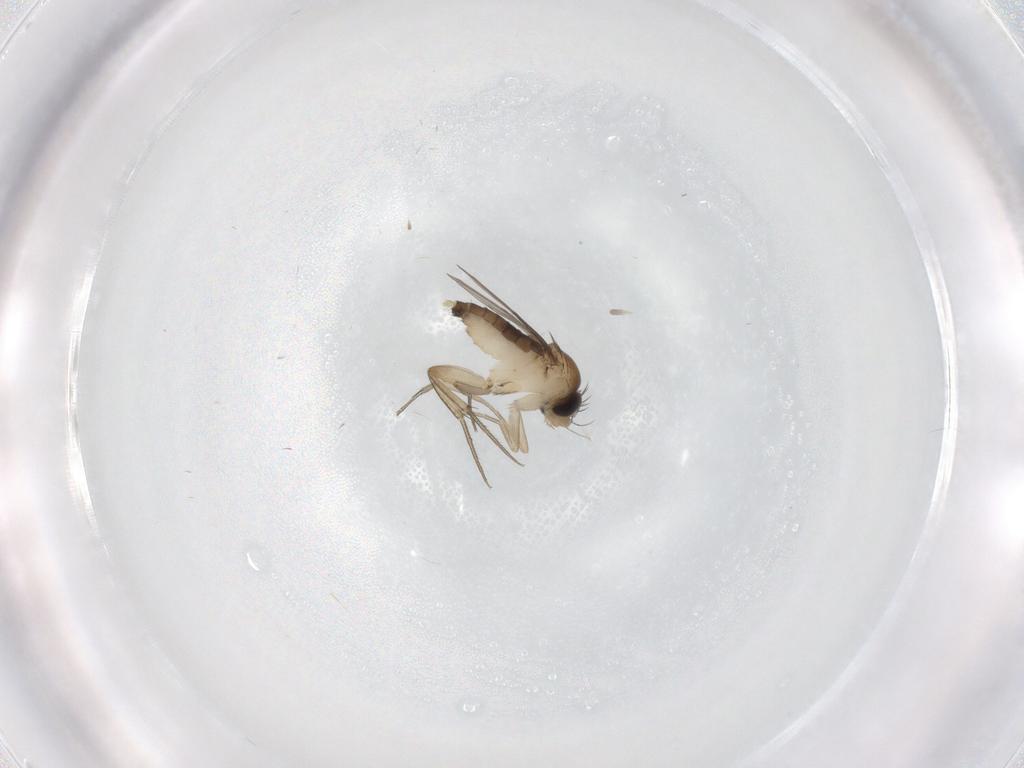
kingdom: Animalia
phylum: Arthropoda
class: Insecta
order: Diptera
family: Phoridae
